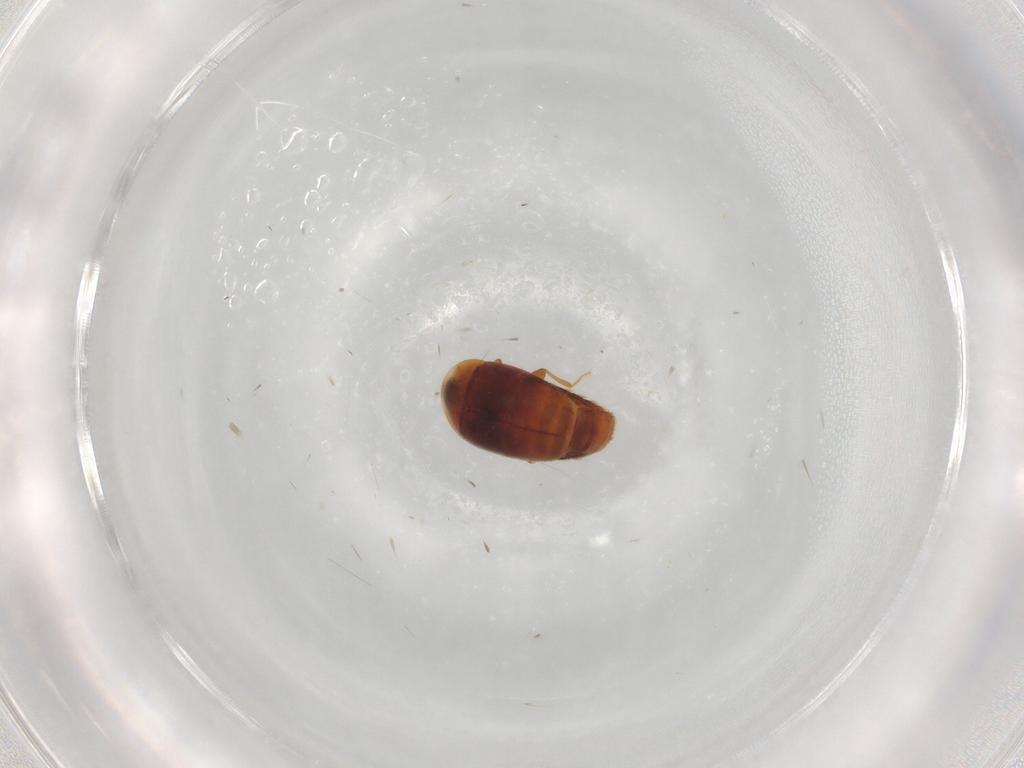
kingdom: Animalia
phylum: Arthropoda
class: Insecta
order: Coleoptera
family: Corylophidae
